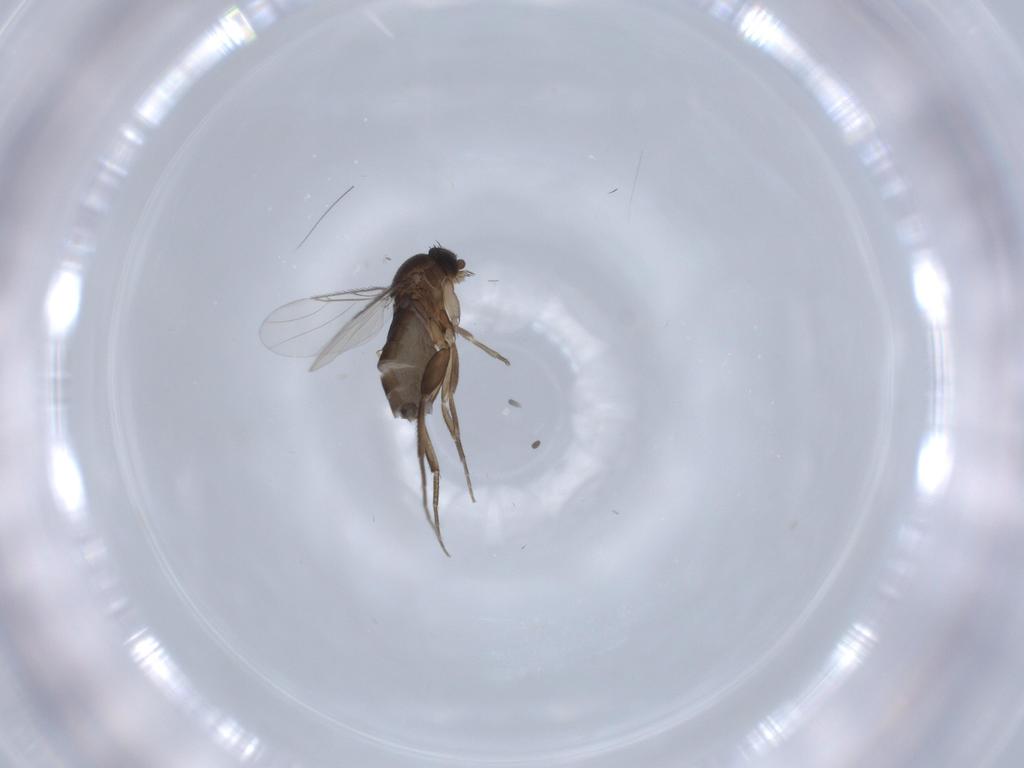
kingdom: Animalia
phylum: Arthropoda
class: Insecta
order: Diptera
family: Phoridae
